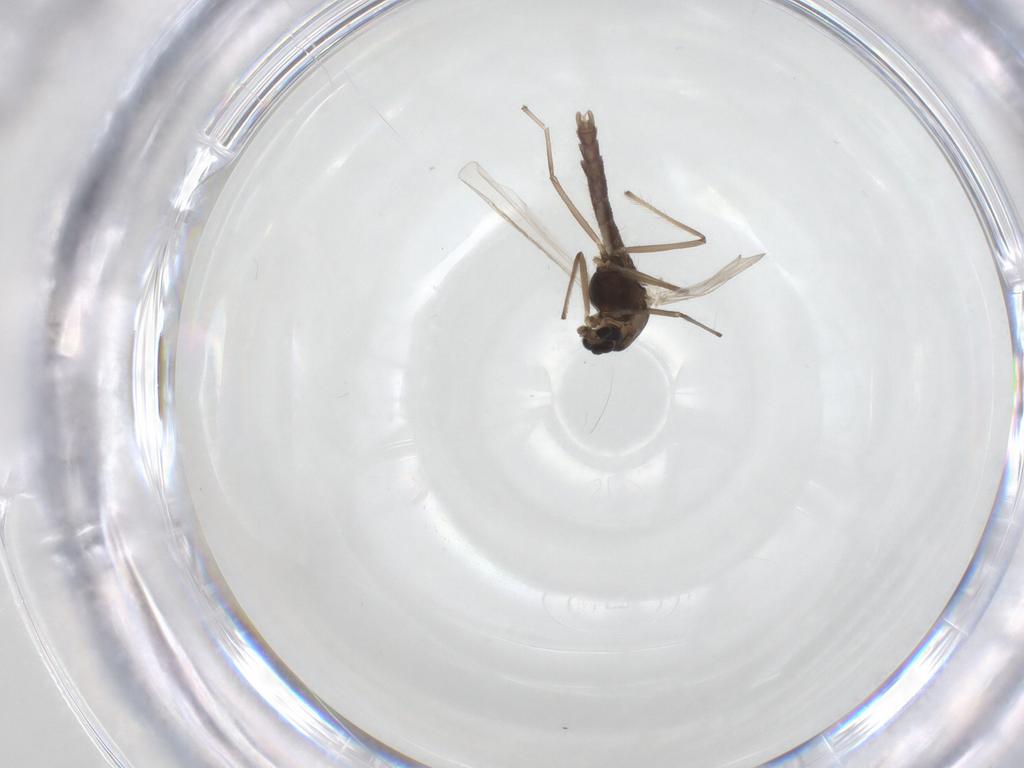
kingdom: Animalia
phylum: Arthropoda
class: Insecta
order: Diptera
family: Chironomidae
